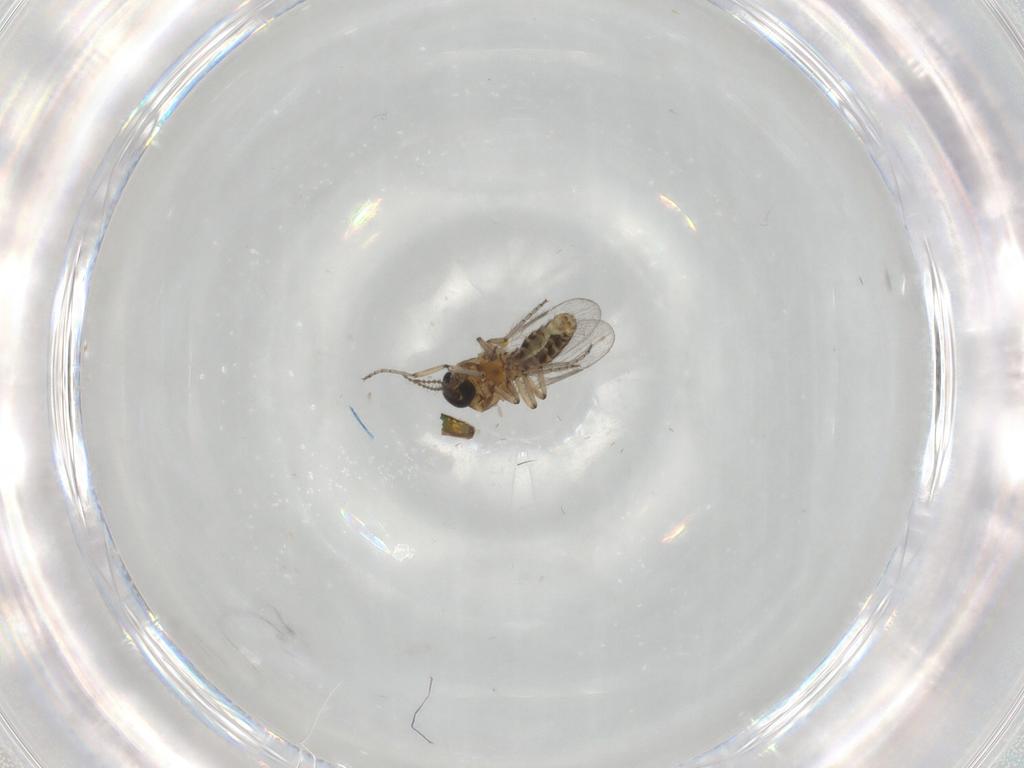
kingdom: Animalia
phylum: Arthropoda
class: Insecta
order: Diptera
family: Ceratopogonidae
